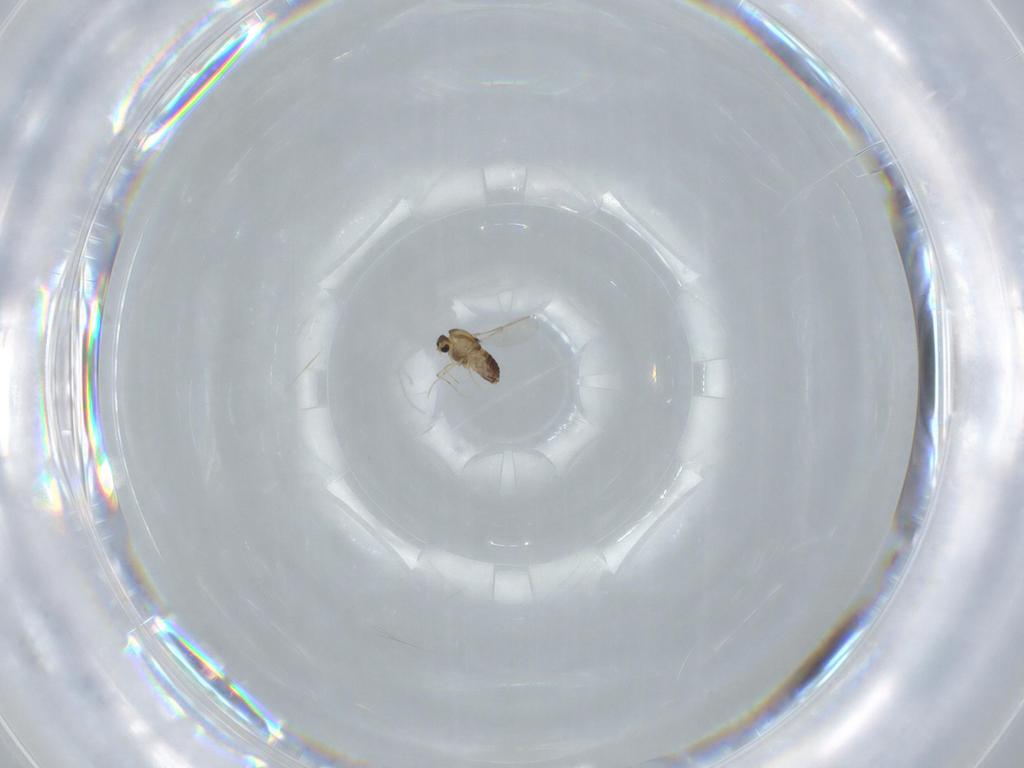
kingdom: Animalia
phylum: Arthropoda
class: Insecta
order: Diptera
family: Chironomidae
